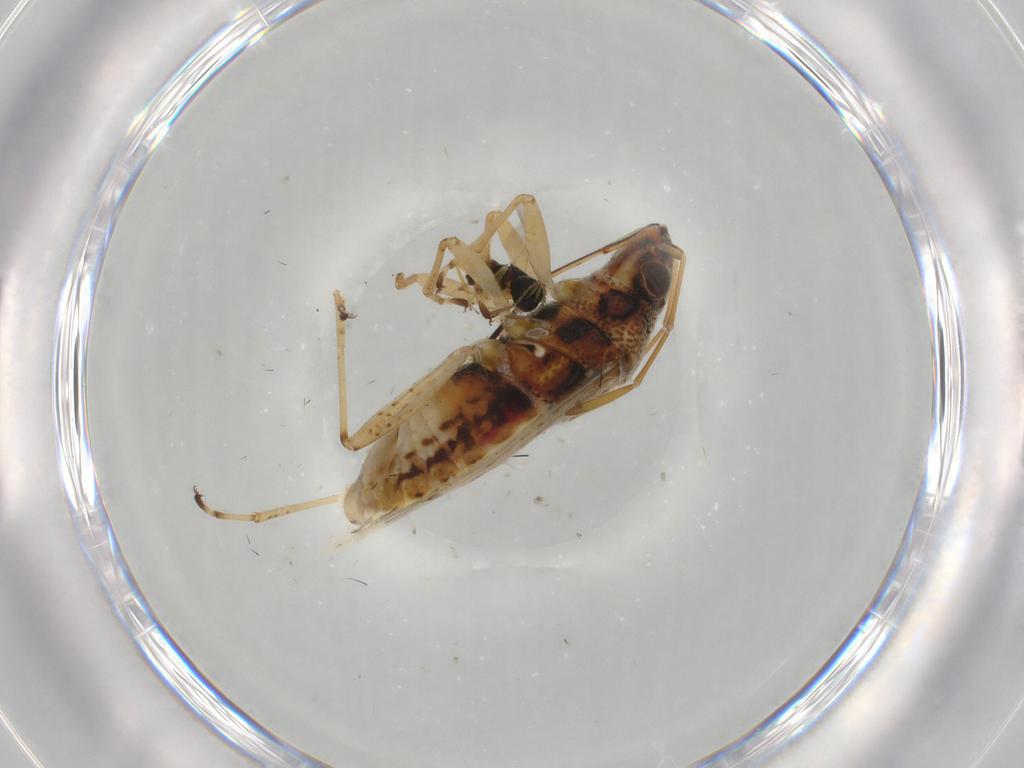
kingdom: Animalia
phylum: Arthropoda
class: Insecta
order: Hemiptera
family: Lygaeidae
